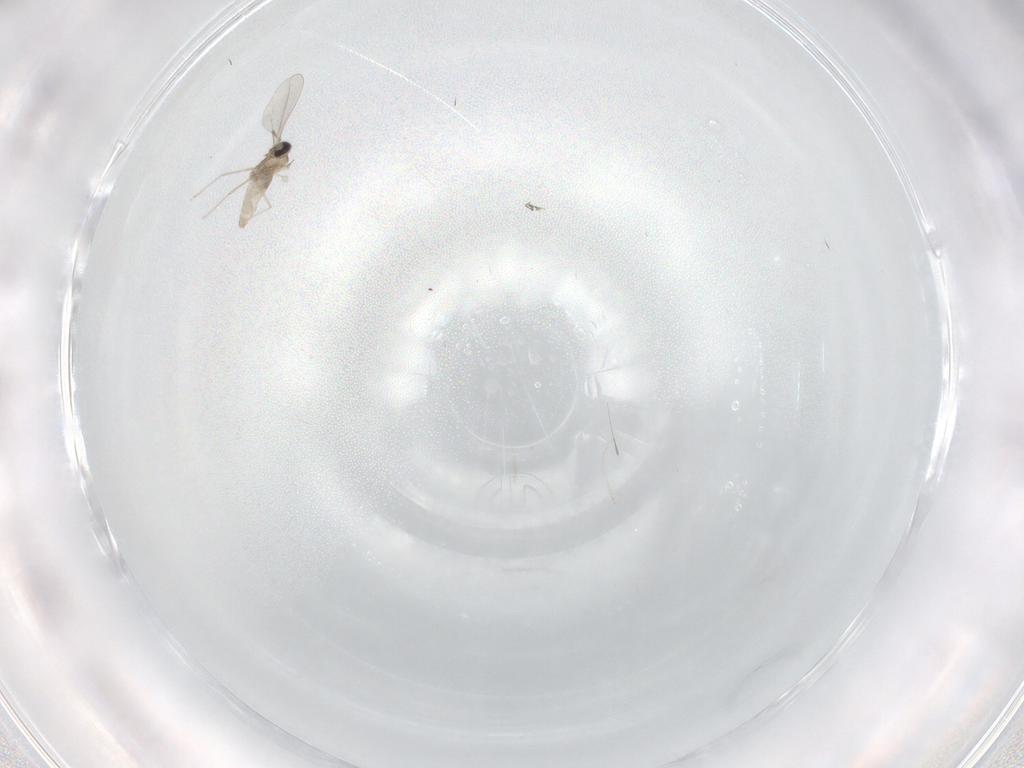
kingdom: Animalia
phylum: Arthropoda
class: Insecta
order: Diptera
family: Cecidomyiidae
